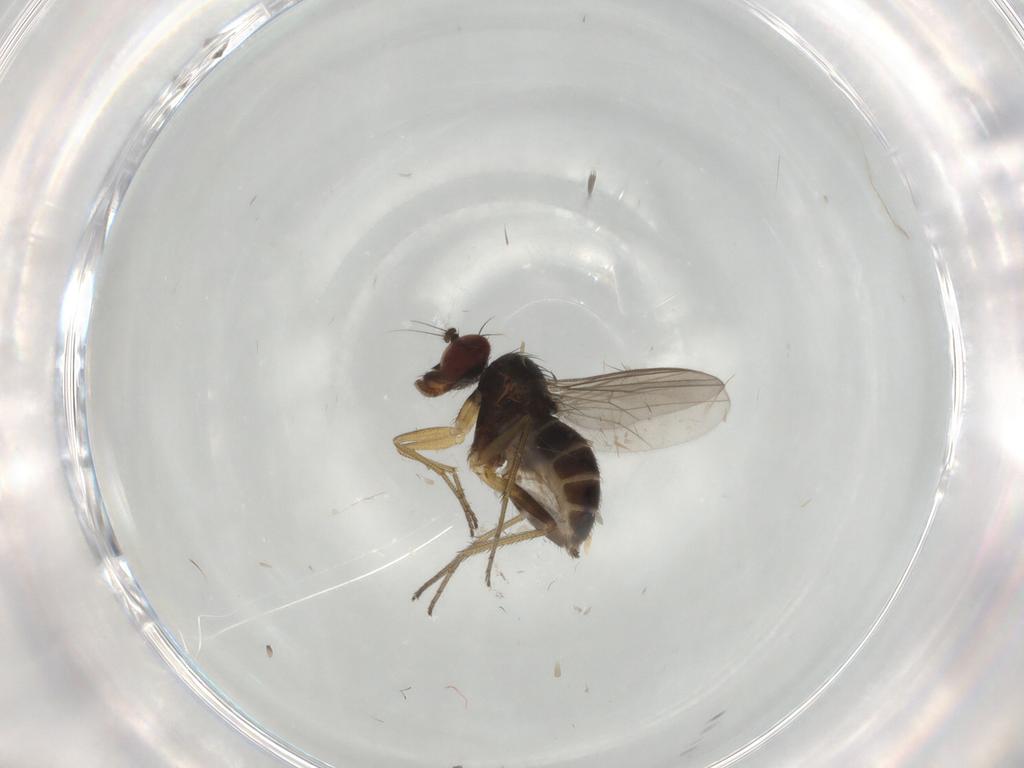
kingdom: Animalia
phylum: Arthropoda
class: Insecta
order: Diptera
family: Dolichopodidae
